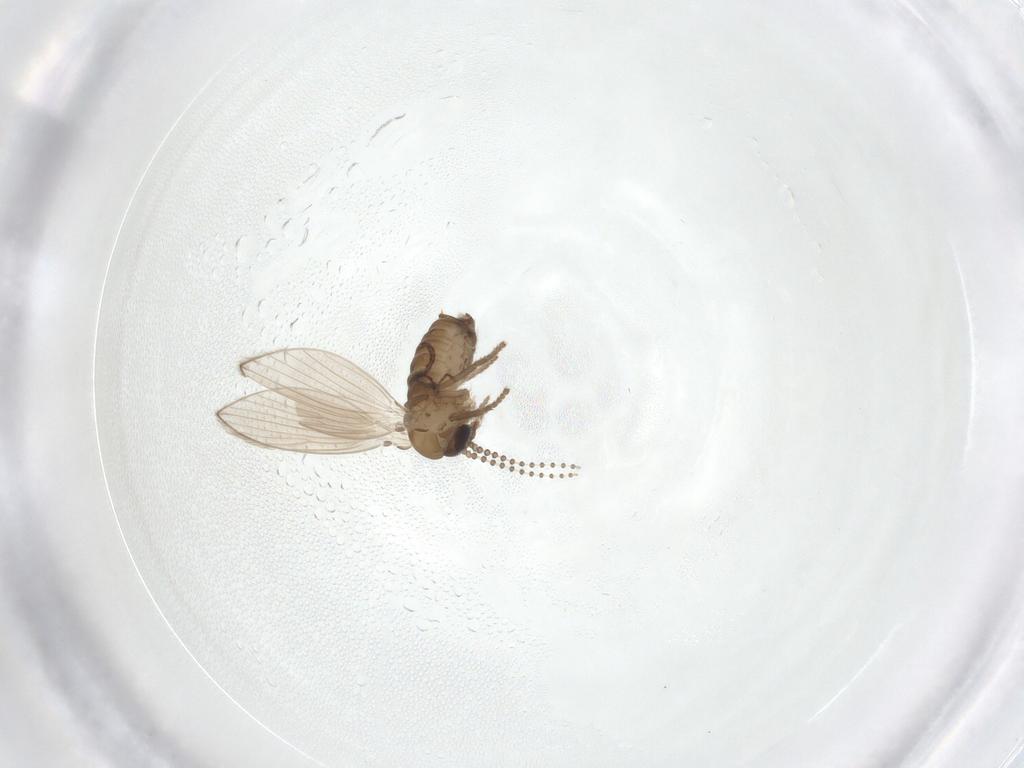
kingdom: Animalia
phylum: Arthropoda
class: Insecta
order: Diptera
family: Psychodidae
